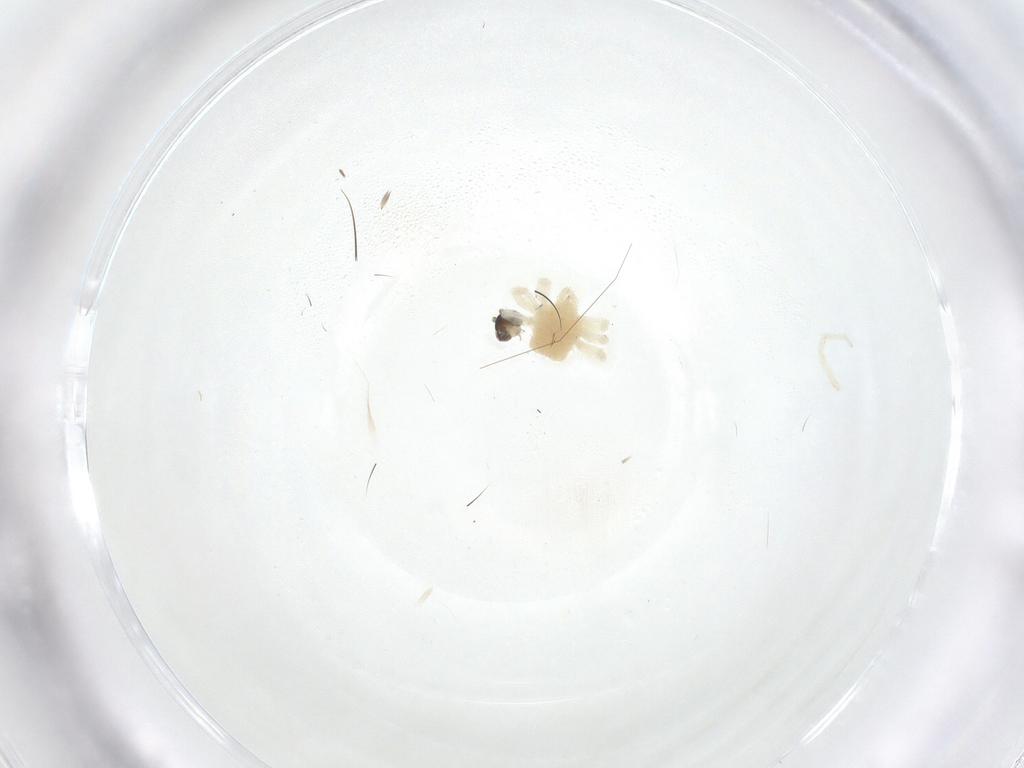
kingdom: Animalia
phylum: Arthropoda
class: Arachnida
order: Trombidiformes
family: Anystidae
